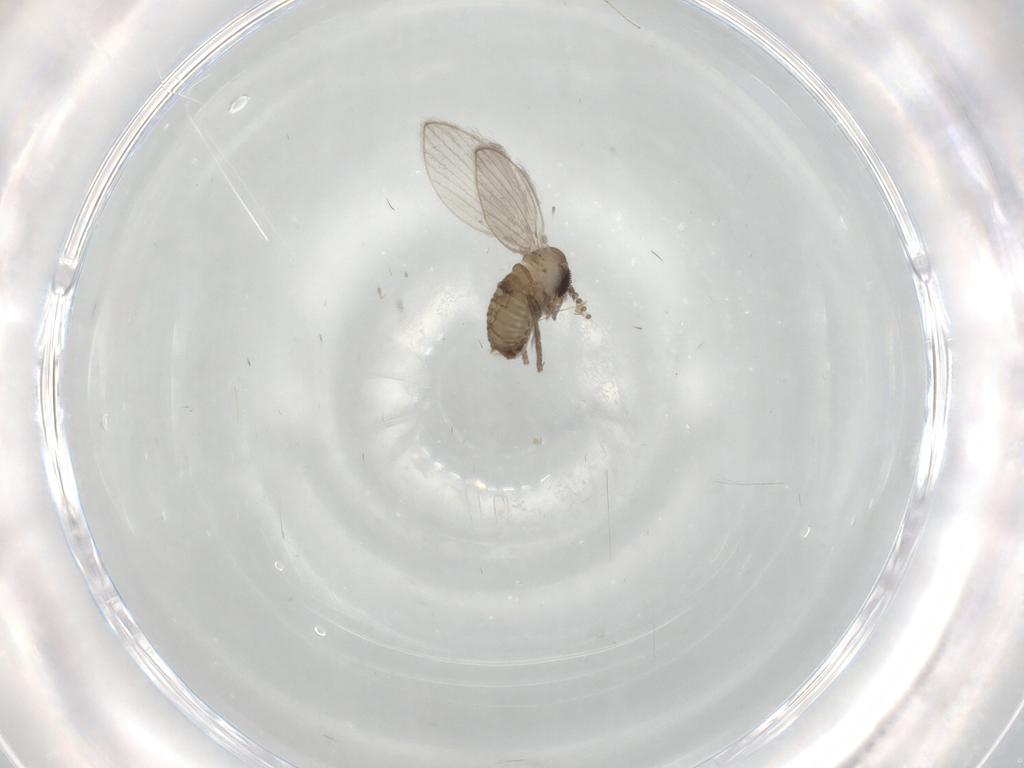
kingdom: Animalia
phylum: Arthropoda
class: Insecta
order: Diptera
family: Psychodidae
